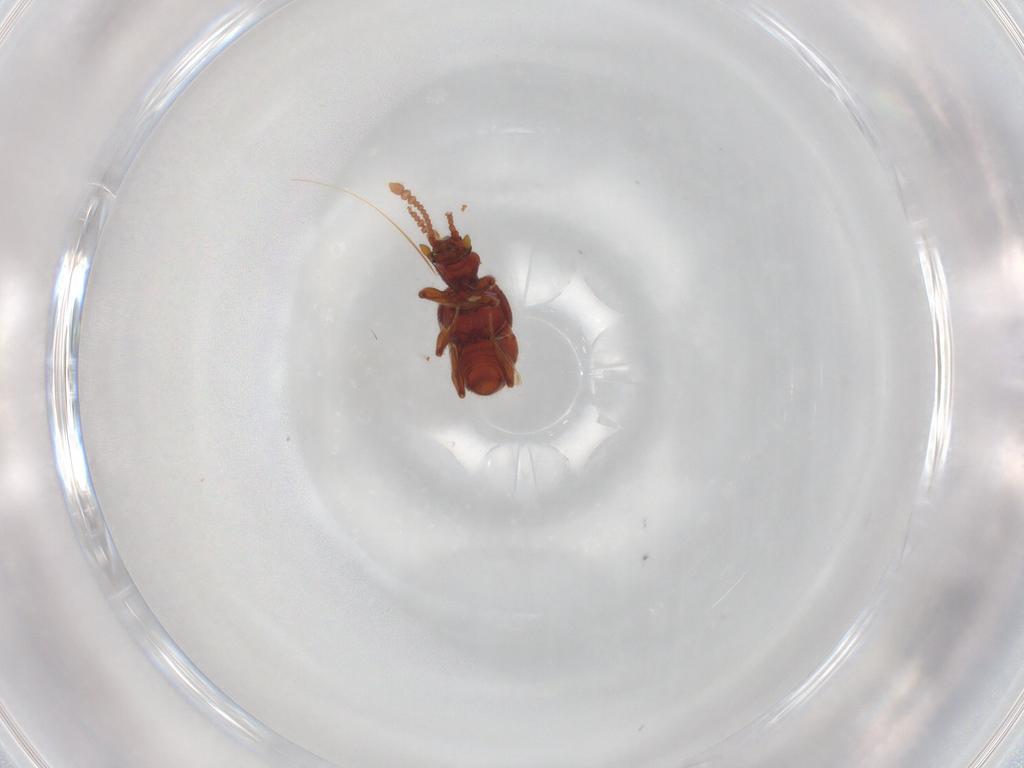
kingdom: Animalia
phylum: Arthropoda
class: Insecta
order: Coleoptera
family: Staphylinidae
